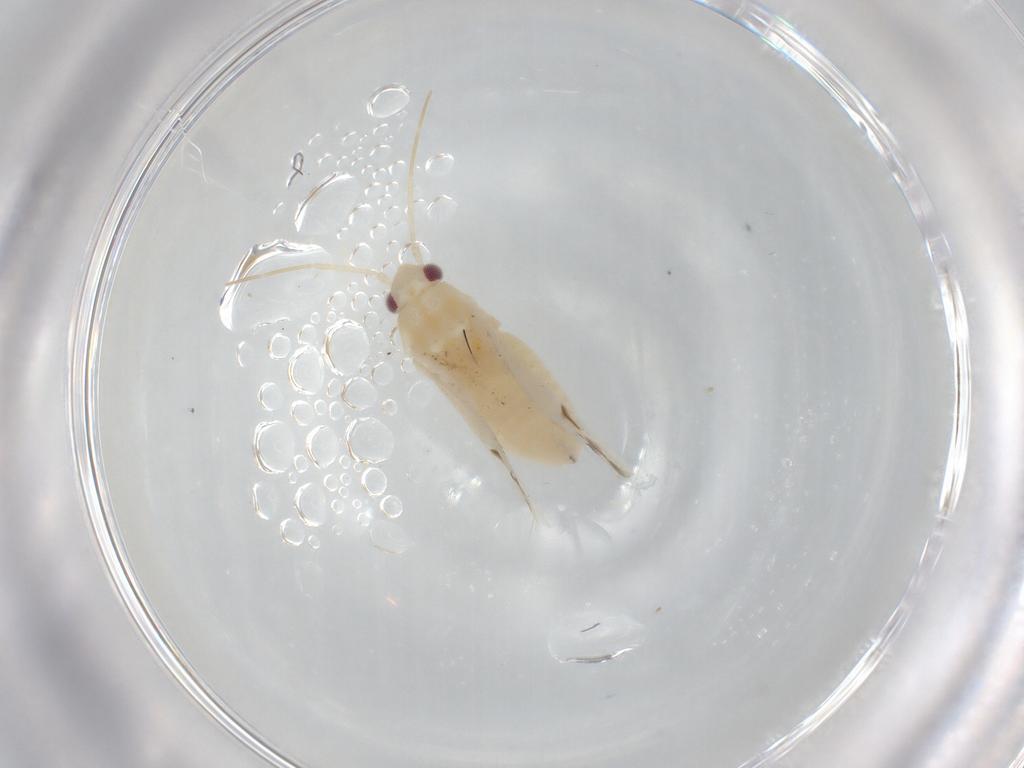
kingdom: Animalia
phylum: Arthropoda
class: Insecta
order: Hemiptera
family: Miridae
